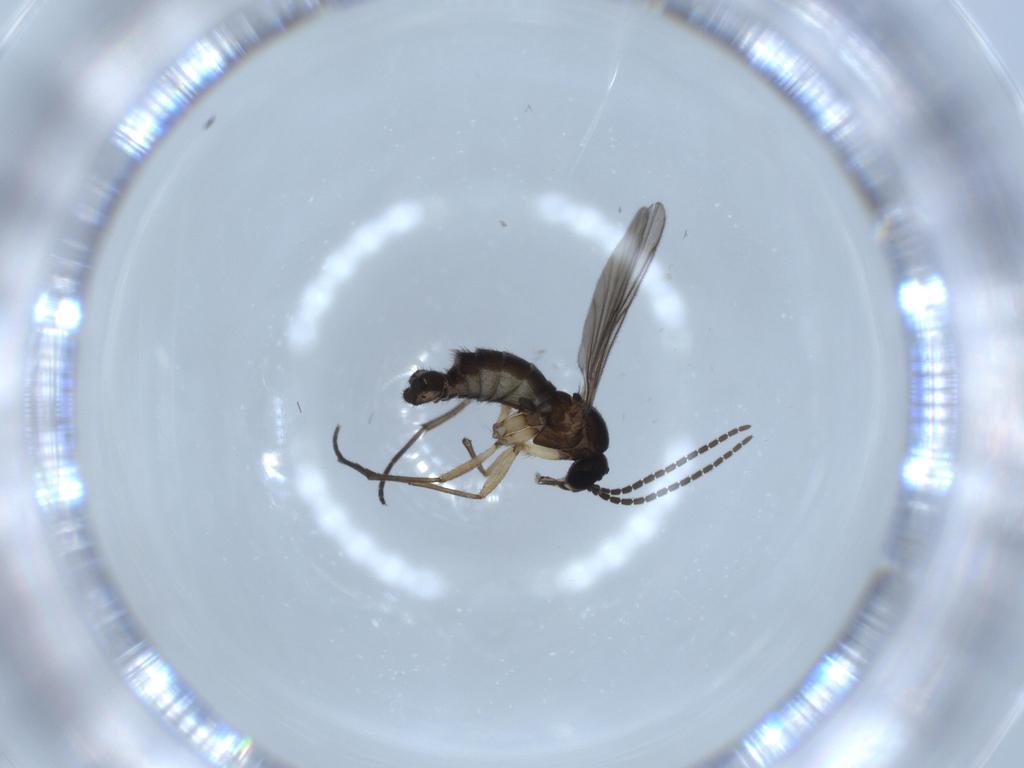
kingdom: Animalia
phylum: Arthropoda
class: Insecta
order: Diptera
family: Sciaridae
